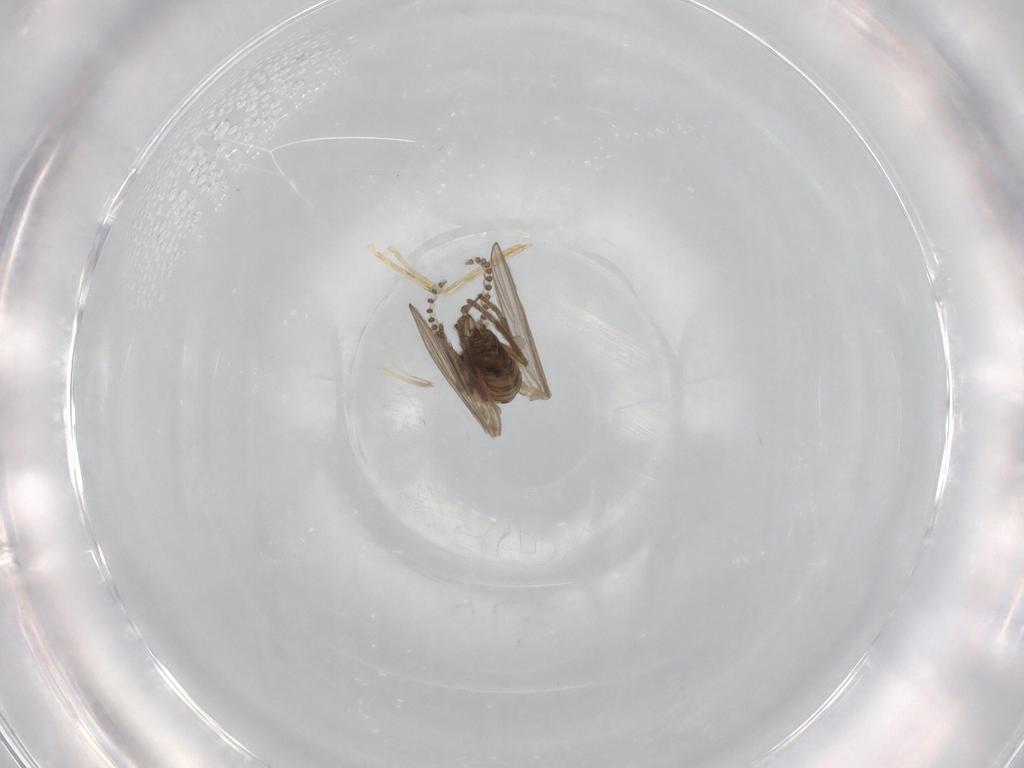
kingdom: Animalia
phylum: Arthropoda
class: Insecta
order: Diptera
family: Cecidomyiidae
